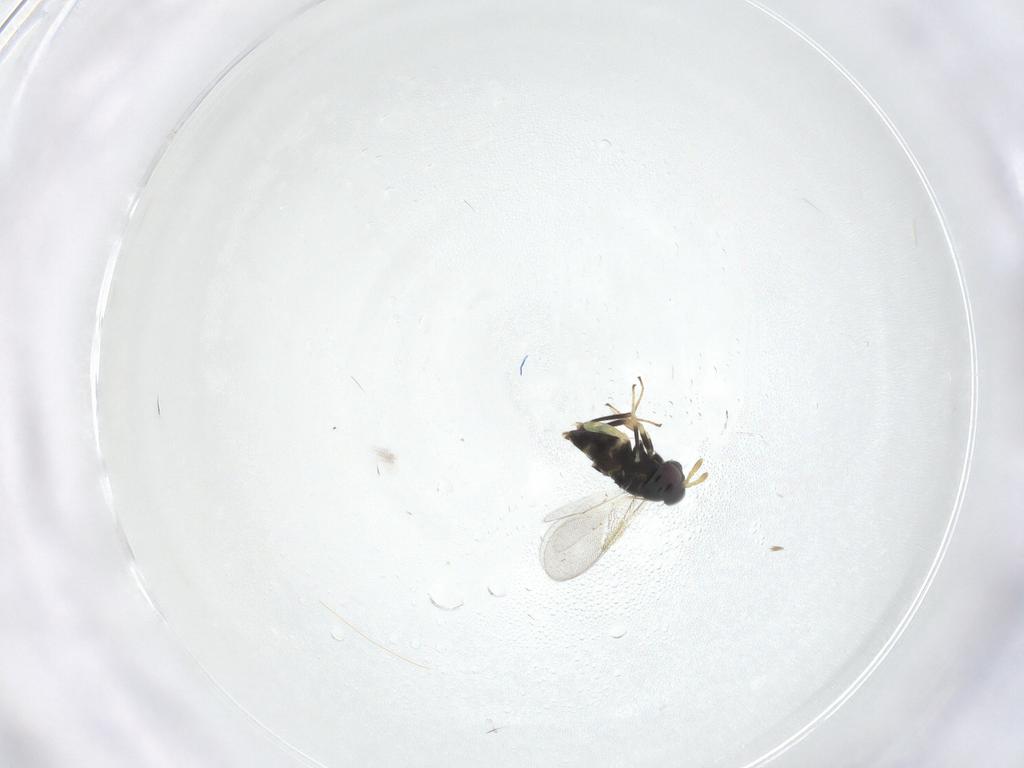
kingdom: Animalia
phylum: Arthropoda
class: Insecta
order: Hymenoptera
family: Aphelinidae
